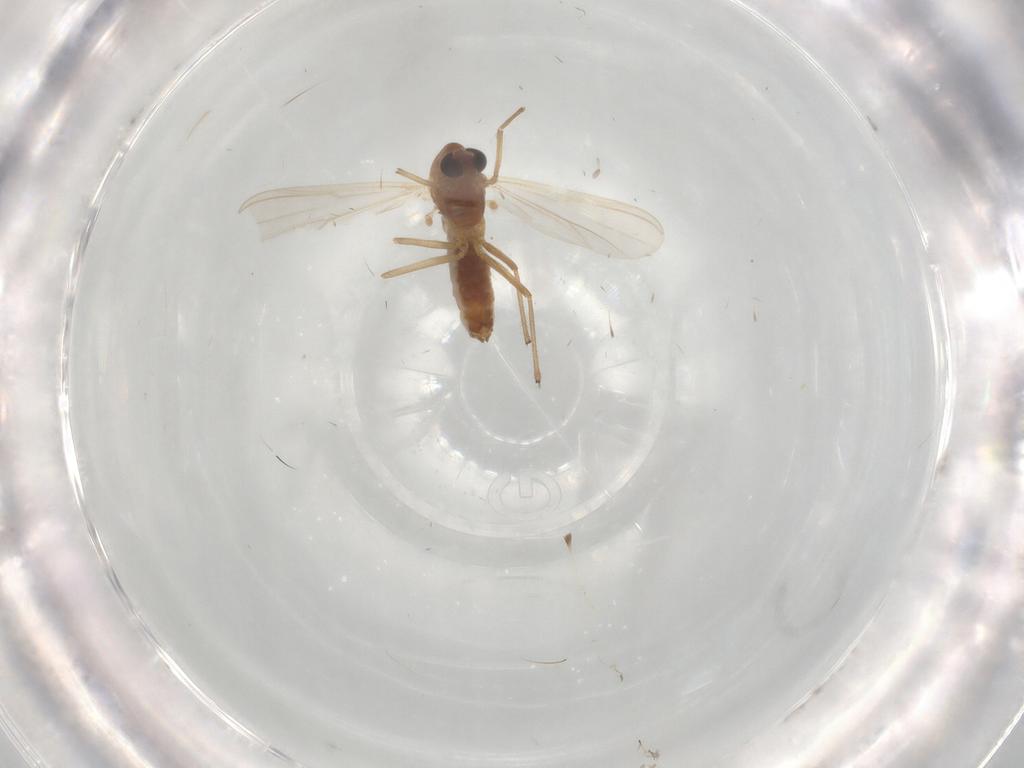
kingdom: Animalia
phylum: Arthropoda
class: Insecta
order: Diptera
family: Chironomidae
